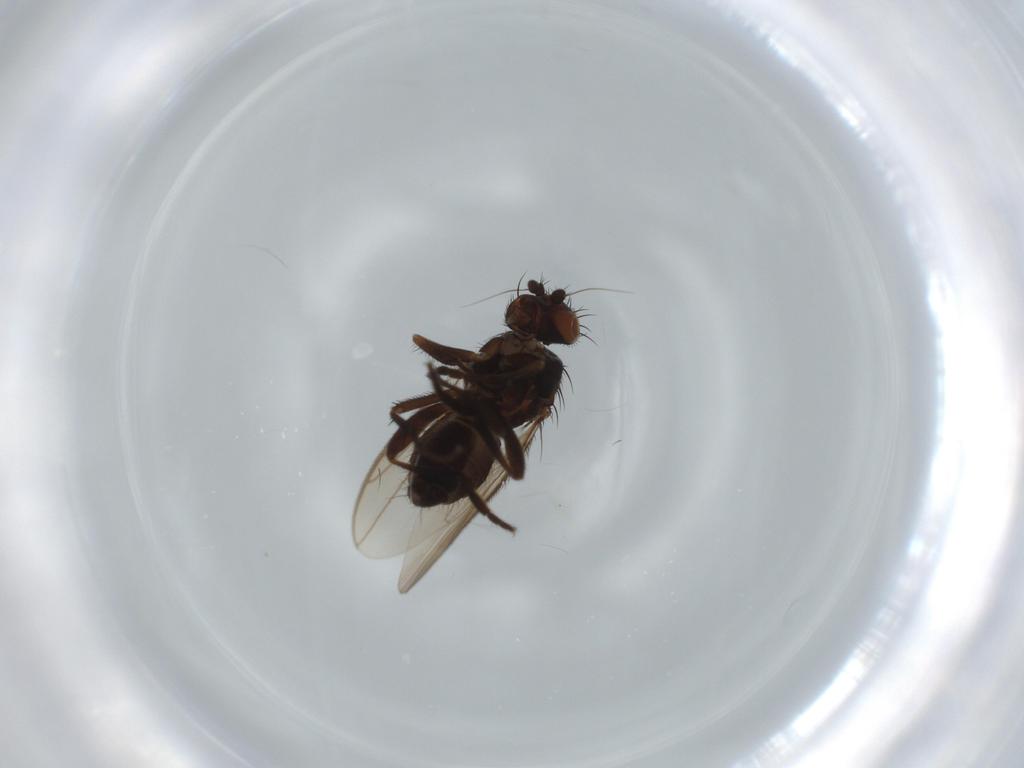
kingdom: Animalia
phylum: Arthropoda
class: Insecta
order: Diptera
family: Sphaeroceridae
